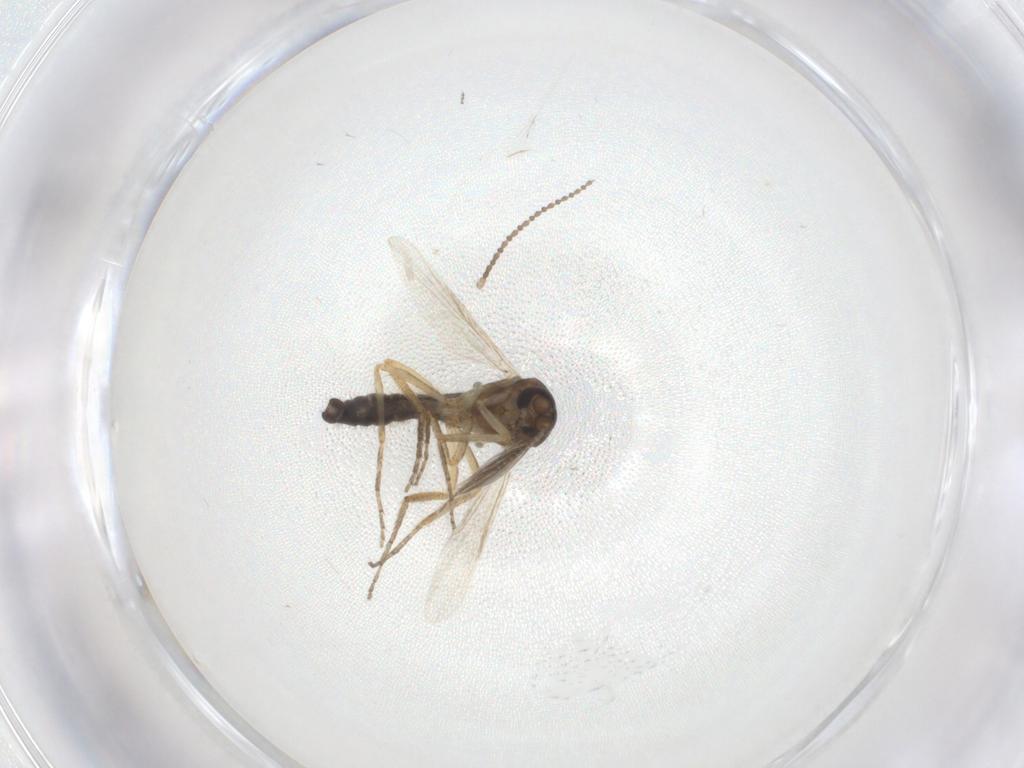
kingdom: Animalia
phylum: Arthropoda
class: Insecta
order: Diptera
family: Ceratopogonidae
